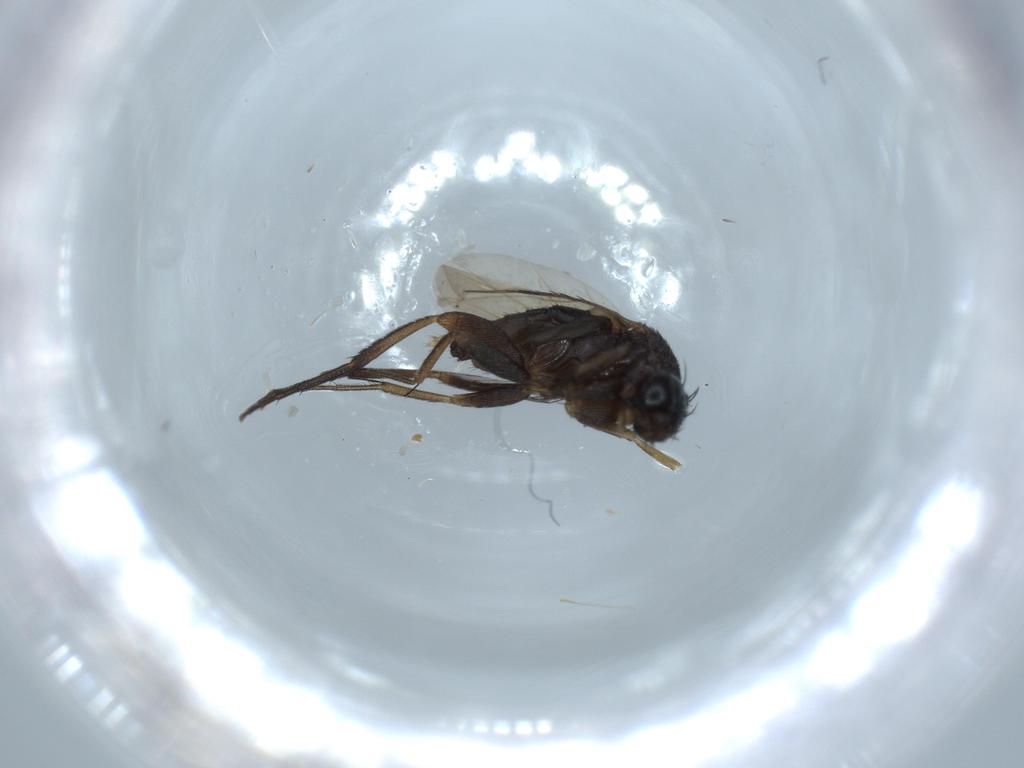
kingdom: Animalia
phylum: Arthropoda
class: Insecta
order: Diptera
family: Phoridae
